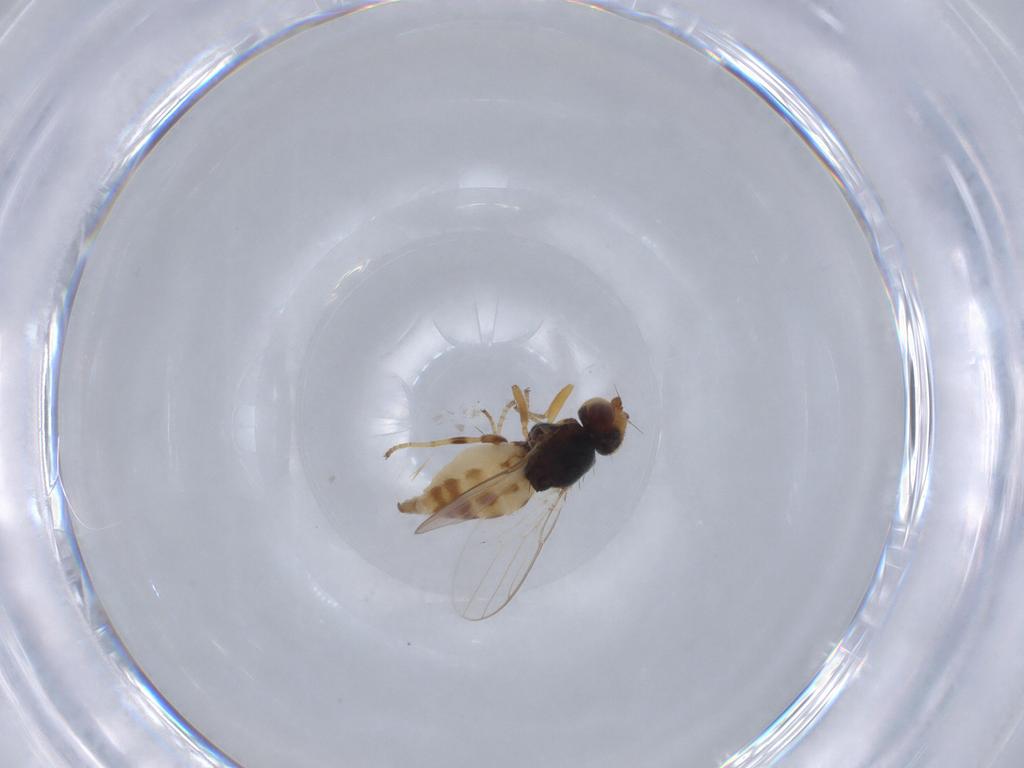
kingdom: Animalia
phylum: Arthropoda
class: Insecta
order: Diptera
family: Chloropidae
